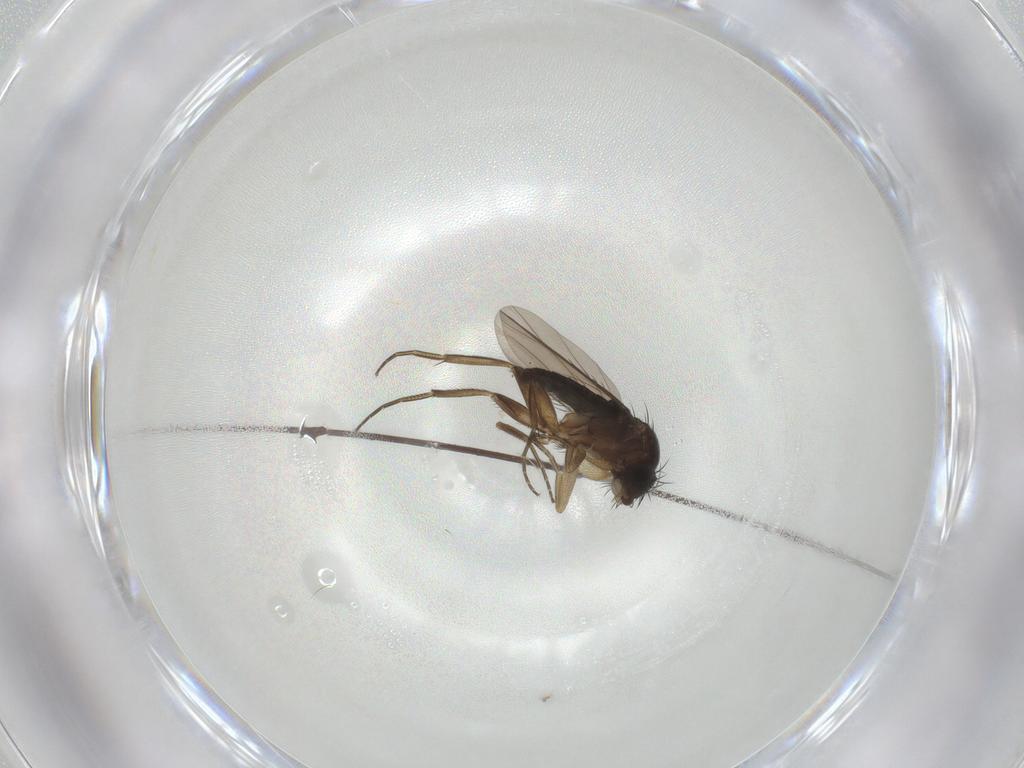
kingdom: Animalia
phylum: Arthropoda
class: Insecta
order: Diptera
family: Phoridae
